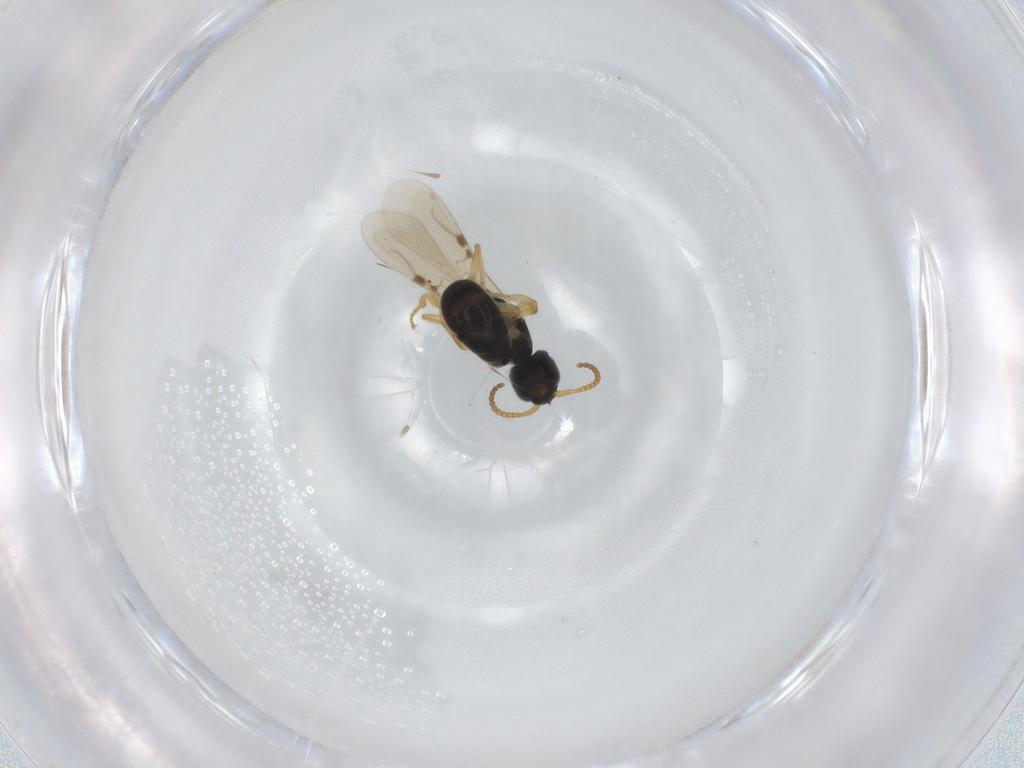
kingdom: Animalia
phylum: Arthropoda
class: Insecta
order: Hymenoptera
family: Bethylidae
